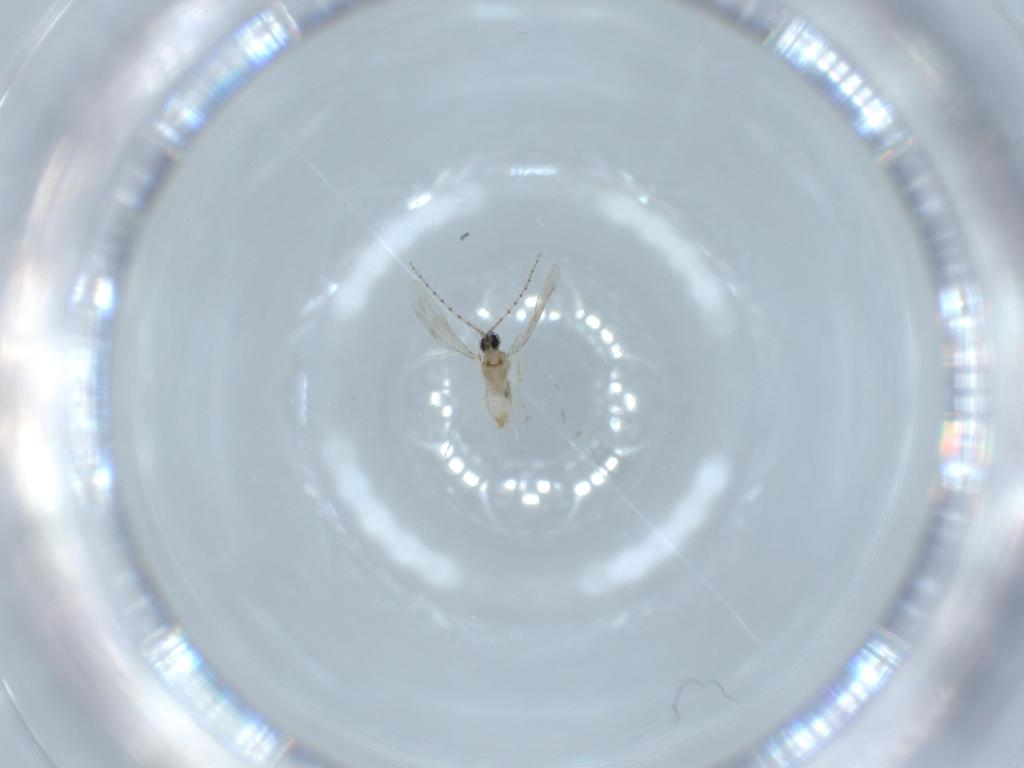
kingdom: Animalia
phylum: Arthropoda
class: Insecta
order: Diptera
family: Cecidomyiidae
